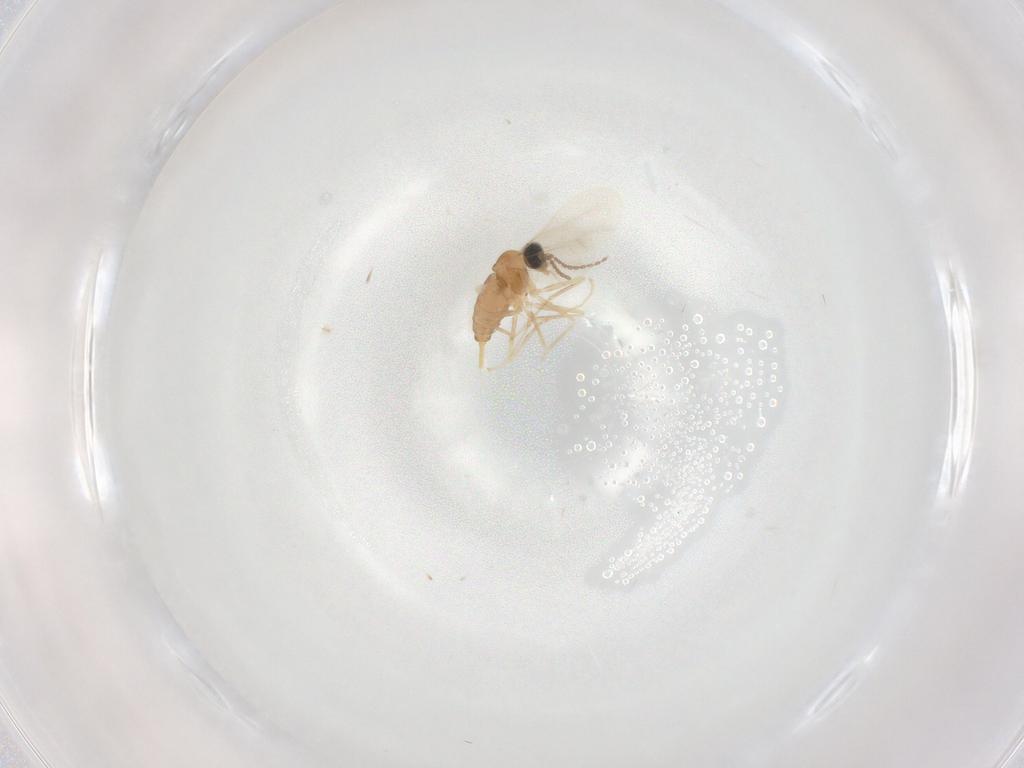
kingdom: Animalia
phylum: Arthropoda
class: Insecta
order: Diptera
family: Cecidomyiidae
